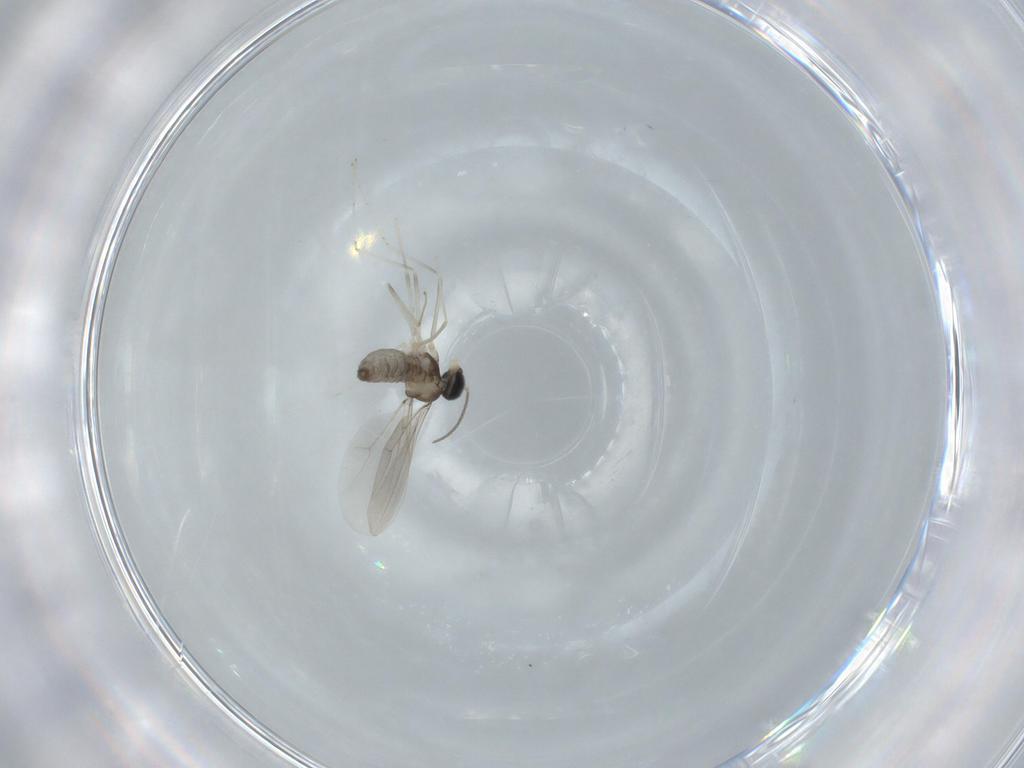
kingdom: Animalia
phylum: Arthropoda
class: Insecta
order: Diptera
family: Cecidomyiidae
